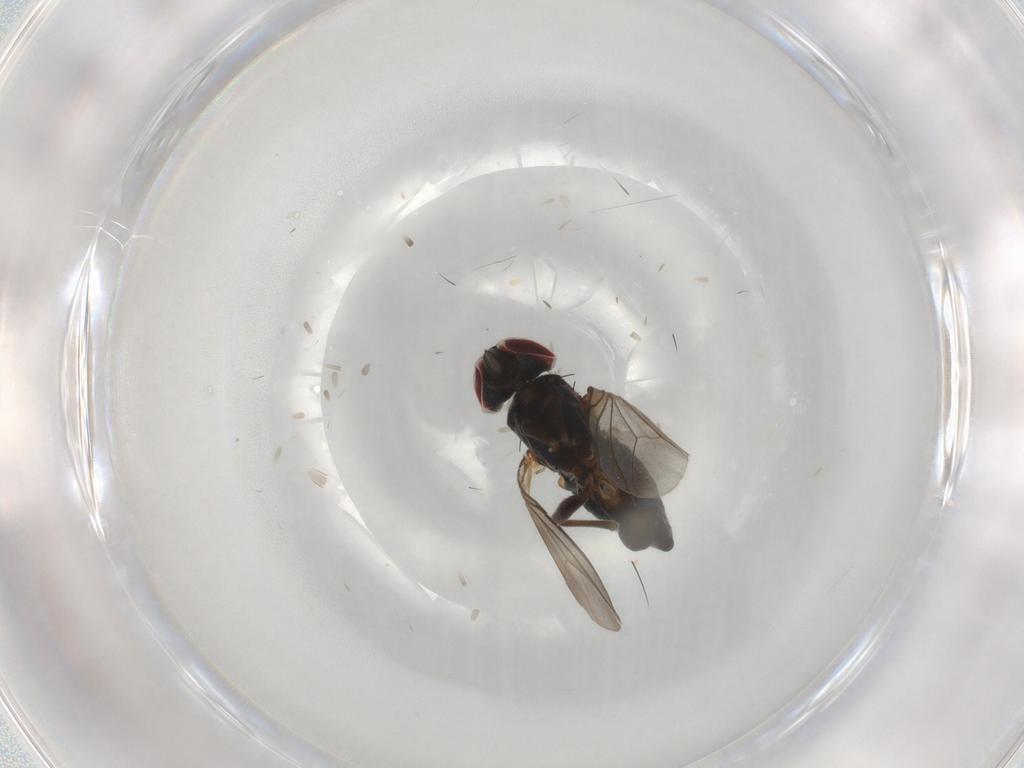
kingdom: Animalia
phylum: Arthropoda
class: Insecta
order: Diptera
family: Dolichopodidae
